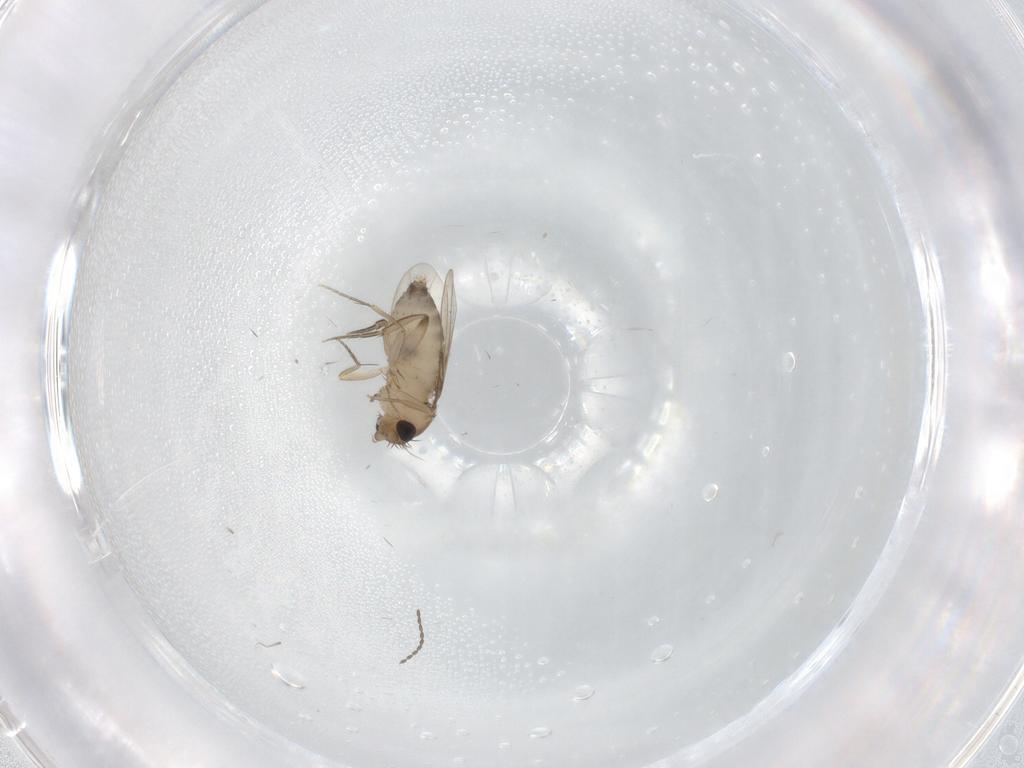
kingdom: Animalia
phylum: Arthropoda
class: Insecta
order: Diptera
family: Phoridae
